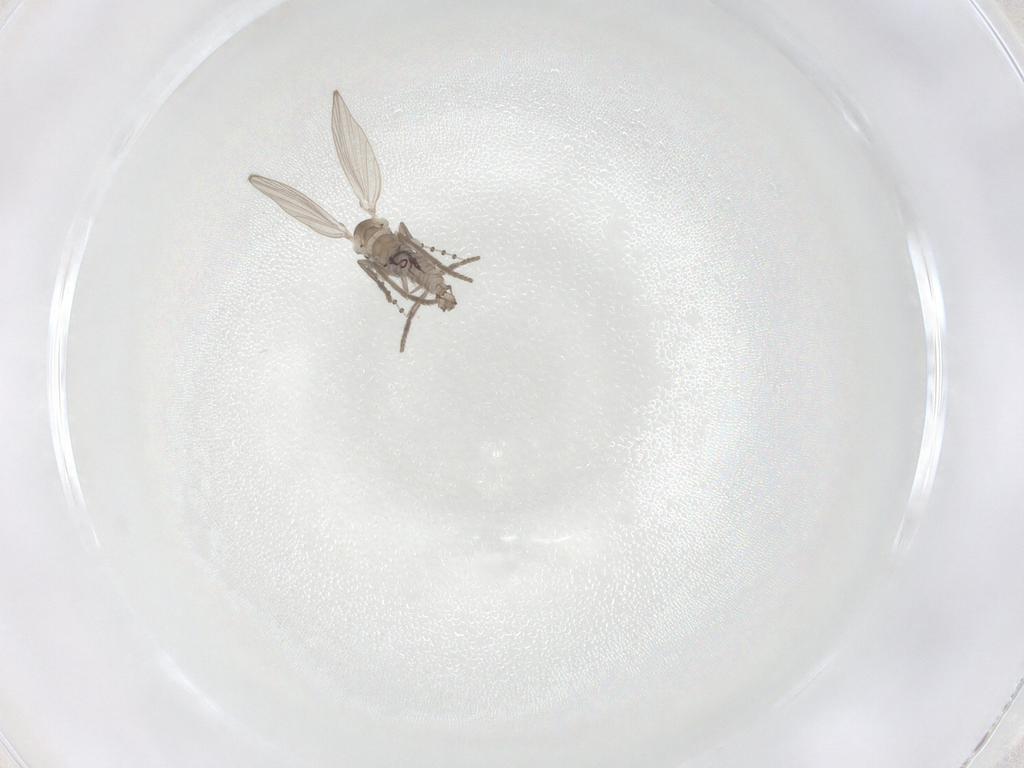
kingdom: Animalia
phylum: Arthropoda
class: Insecta
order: Diptera
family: Psychodidae
